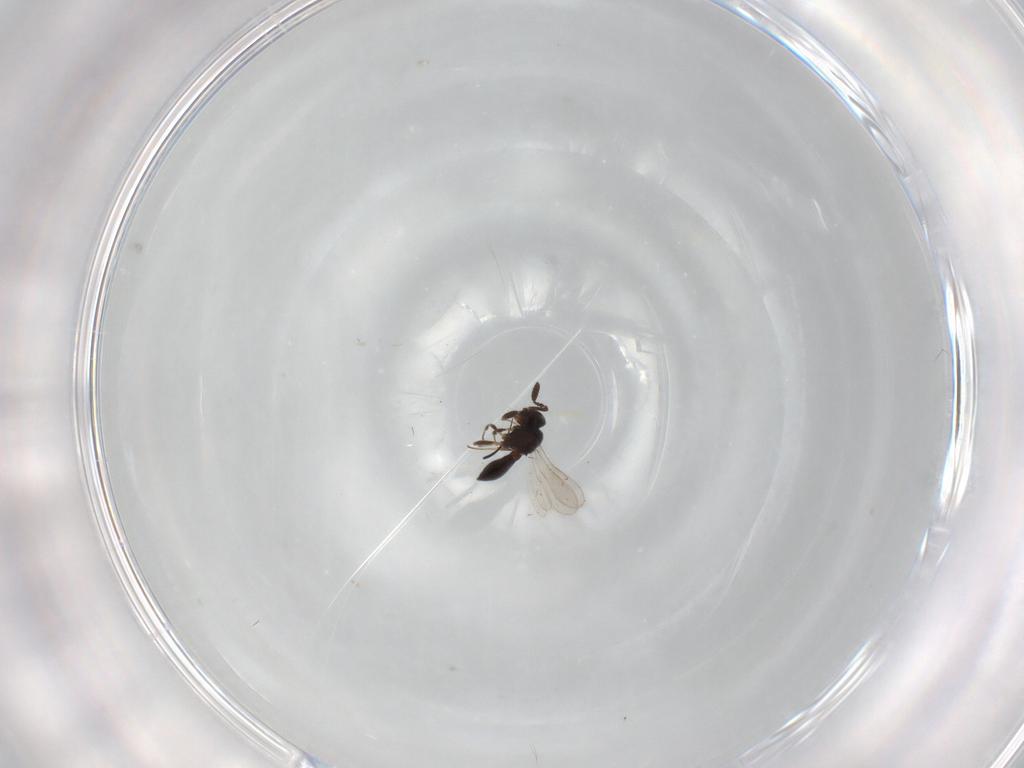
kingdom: Animalia
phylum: Arthropoda
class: Insecta
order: Hymenoptera
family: Scelionidae
